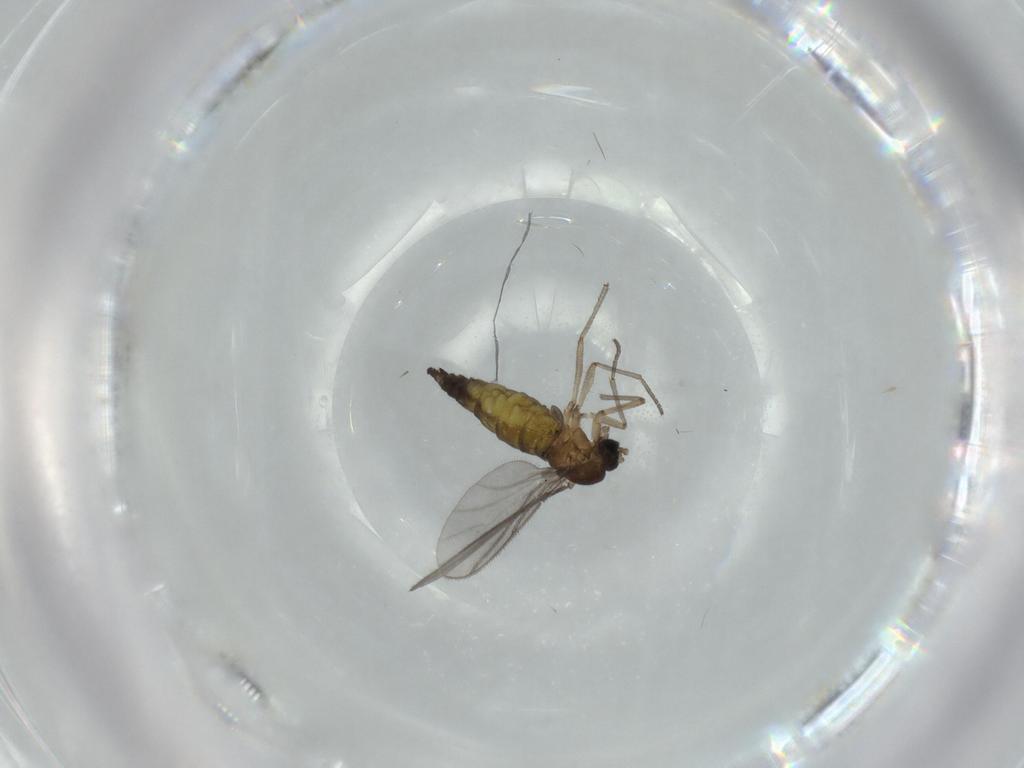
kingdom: Animalia
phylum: Arthropoda
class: Insecta
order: Diptera
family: Sciaridae
